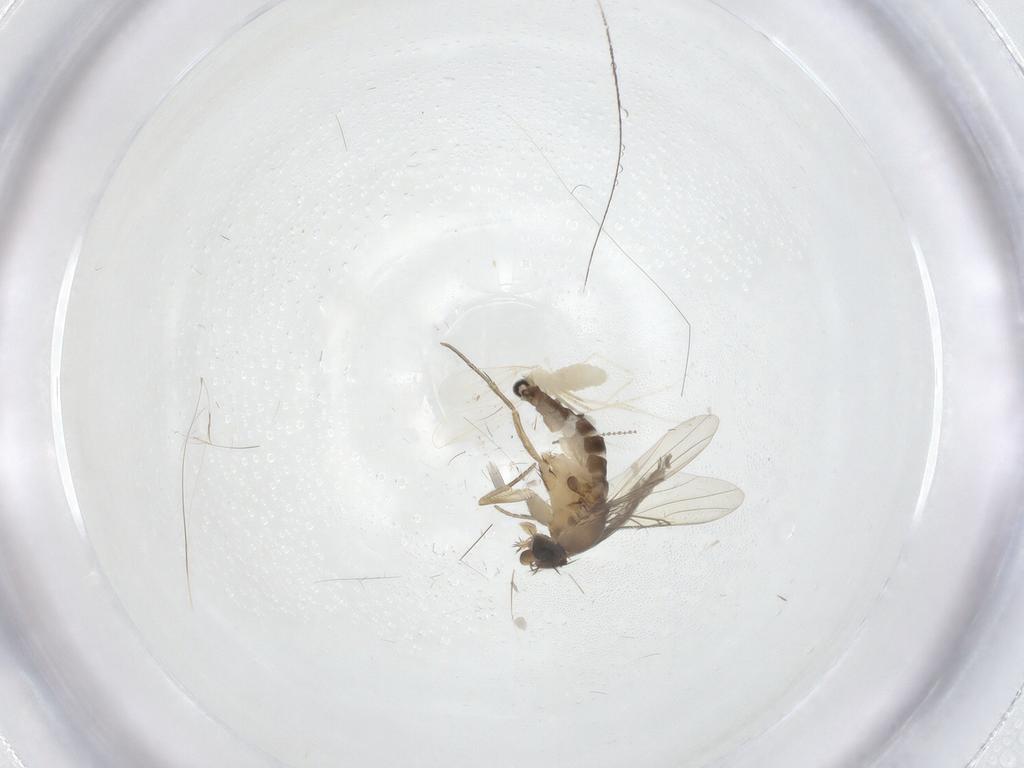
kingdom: Animalia
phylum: Arthropoda
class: Insecta
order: Diptera
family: Phoridae
